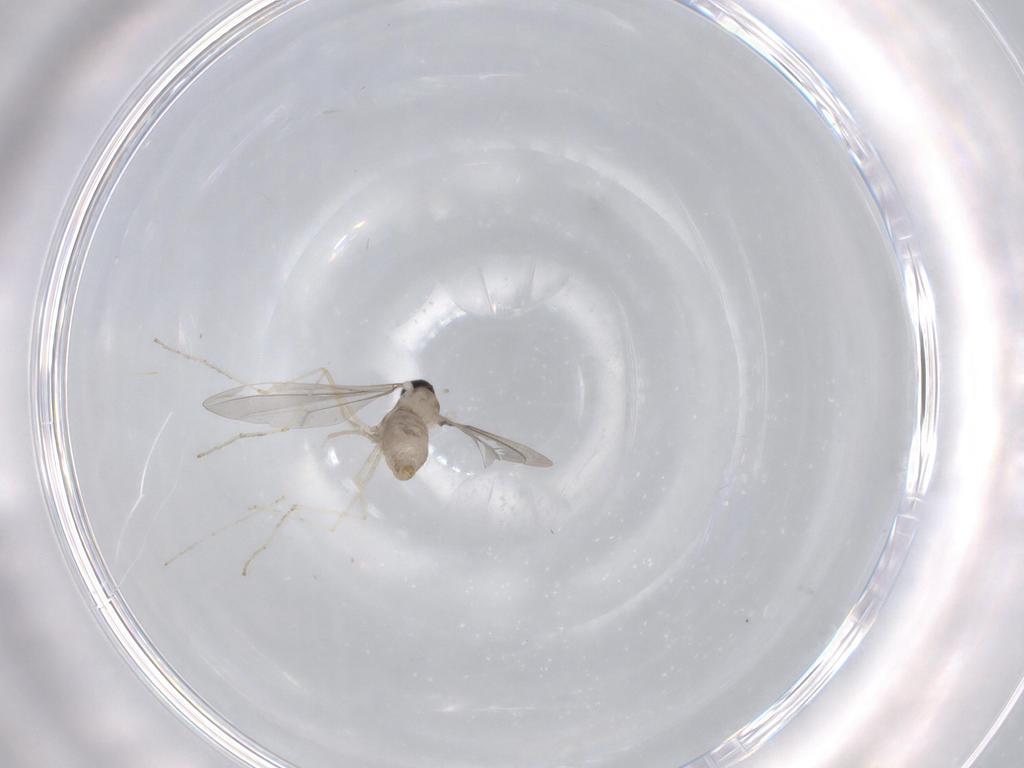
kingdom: Animalia
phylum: Arthropoda
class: Insecta
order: Diptera
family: Cecidomyiidae
